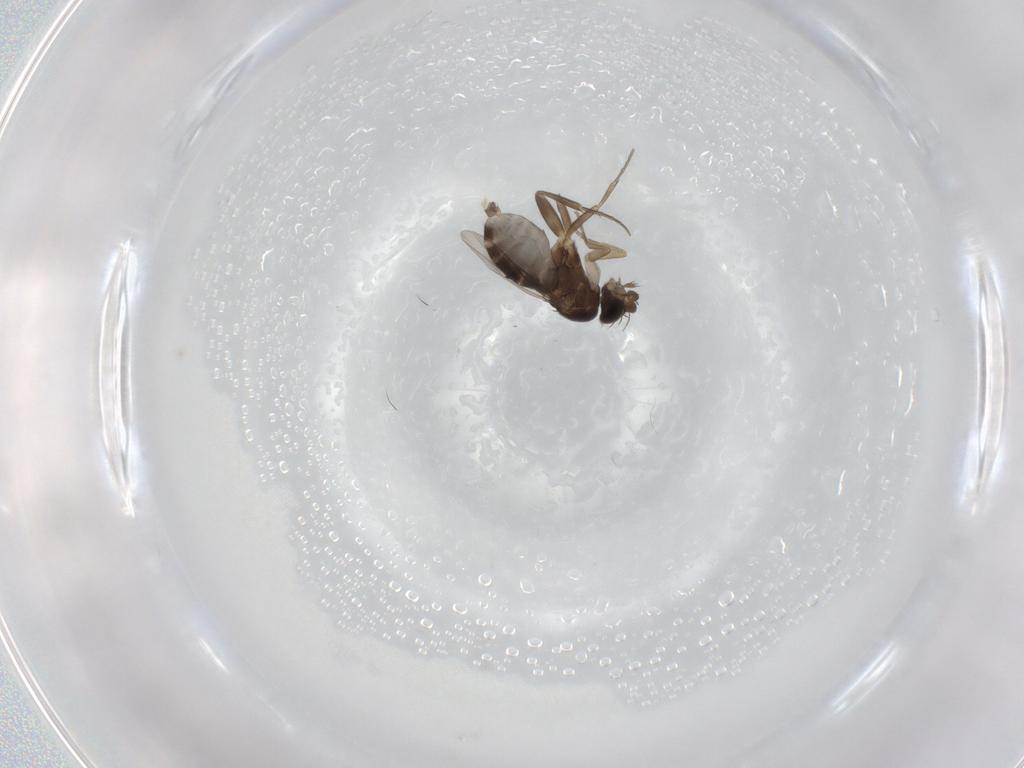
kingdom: Animalia
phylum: Arthropoda
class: Insecta
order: Diptera
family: Phoridae
